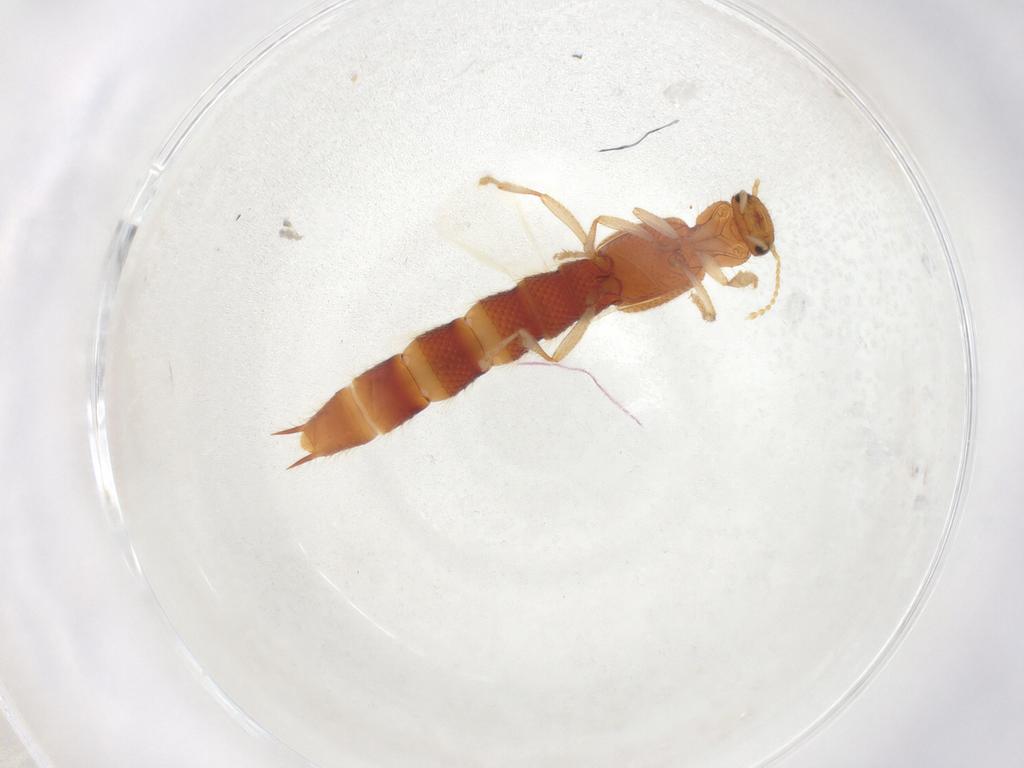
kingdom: Animalia
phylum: Arthropoda
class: Insecta
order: Coleoptera
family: Staphylinidae
